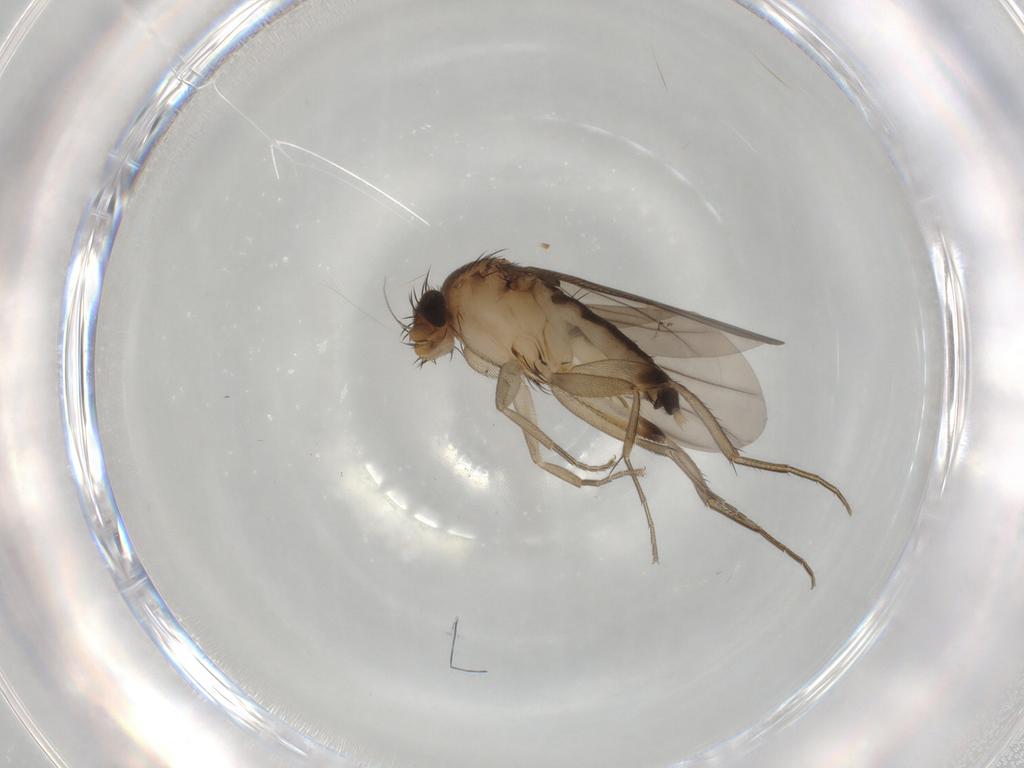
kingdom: Animalia
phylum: Arthropoda
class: Insecta
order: Diptera
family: Phoridae
